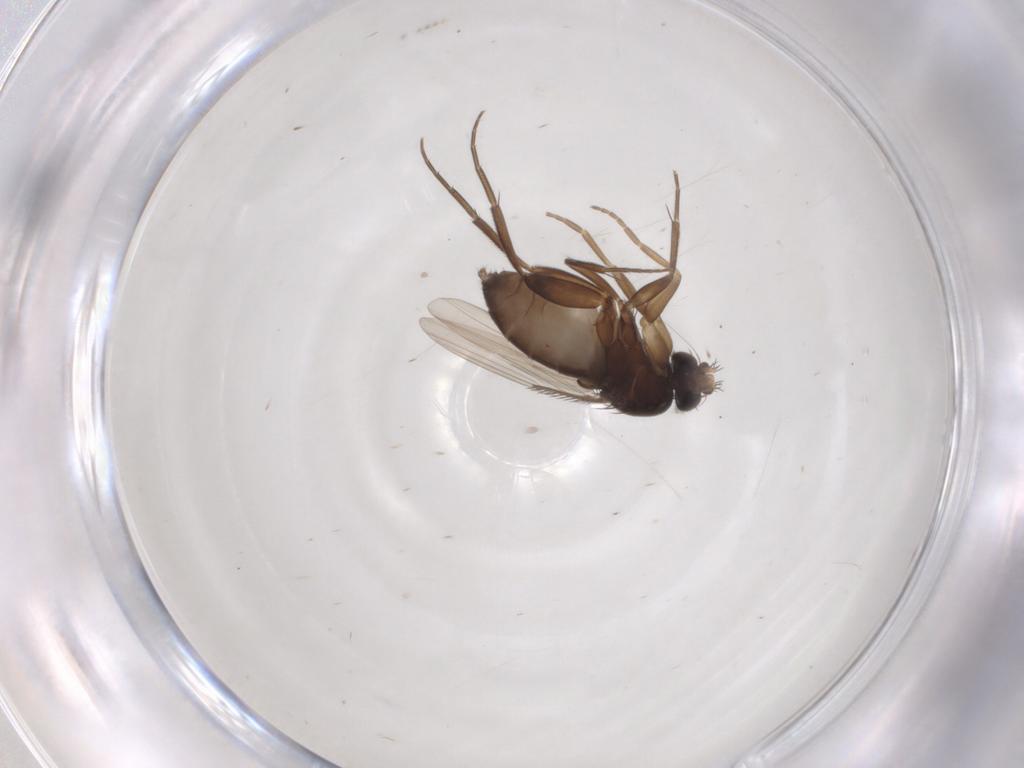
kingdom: Animalia
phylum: Arthropoda
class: Insecta
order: Diptera
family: Phoridae
